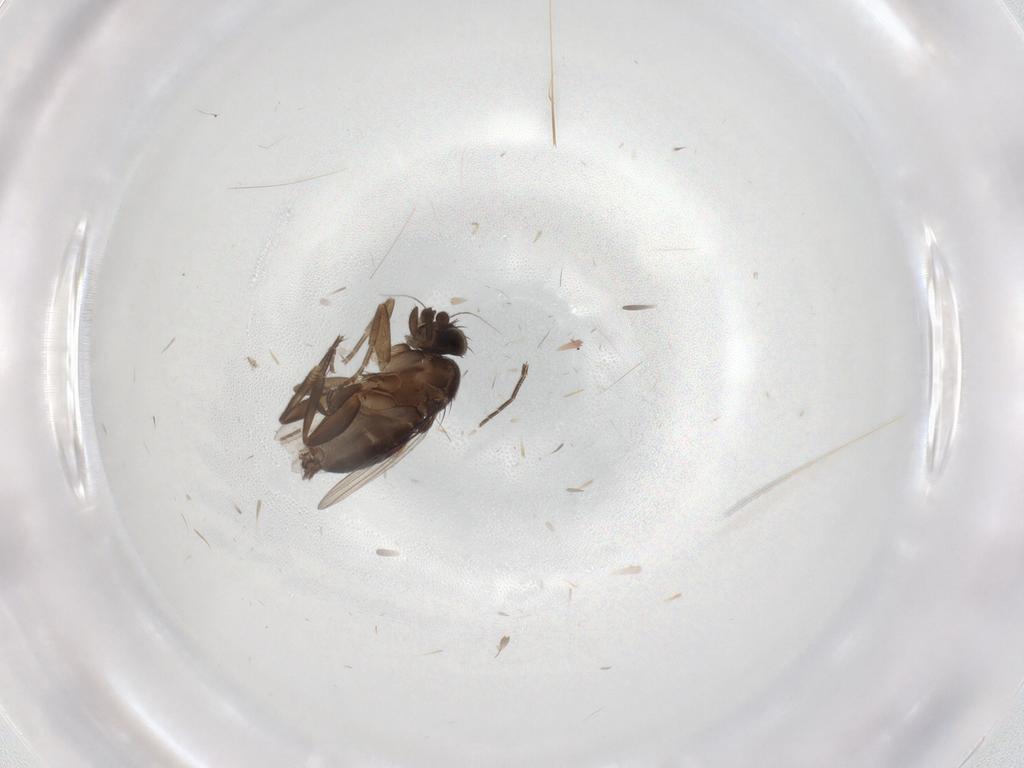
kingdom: Animalia
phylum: Arthropoda
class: Insecta
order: Diptera
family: Phoridae
